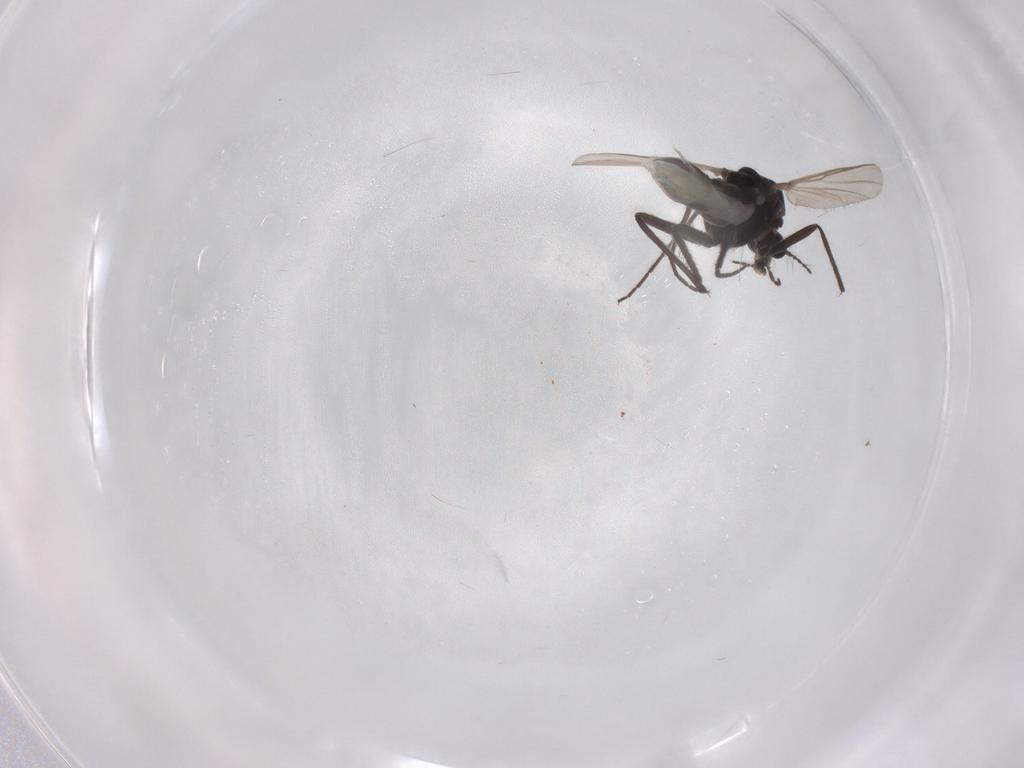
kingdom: Animalia
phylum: Arthropoda
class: Insecta
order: Diptera
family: Chironomidae
